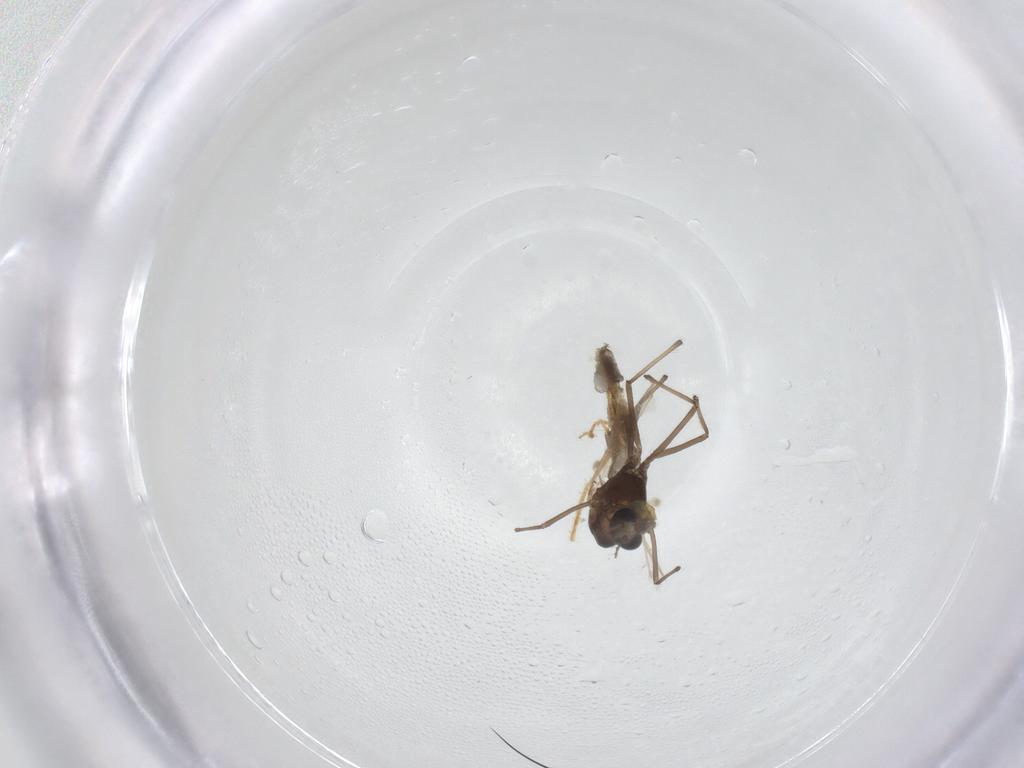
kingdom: Animalia
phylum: Arthropoda
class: Insecta
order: Diptera
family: Chironomidae
